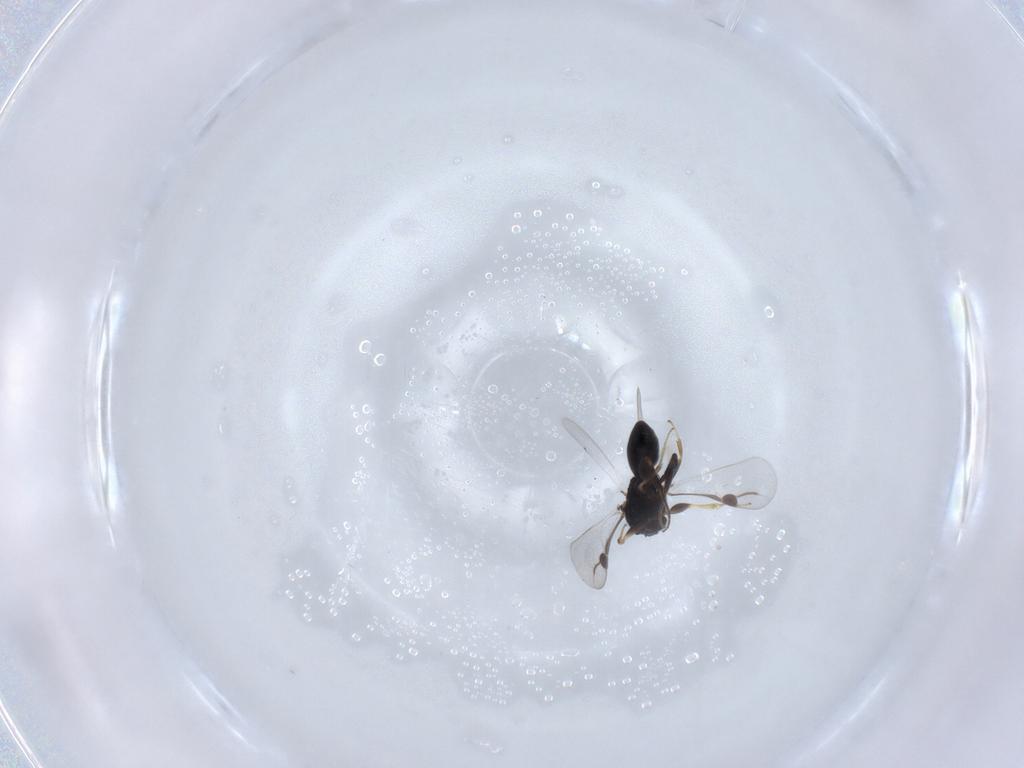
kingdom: Animalia
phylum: Arthropoda
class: Insecta
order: Hymenoptera
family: Megaspilidae
